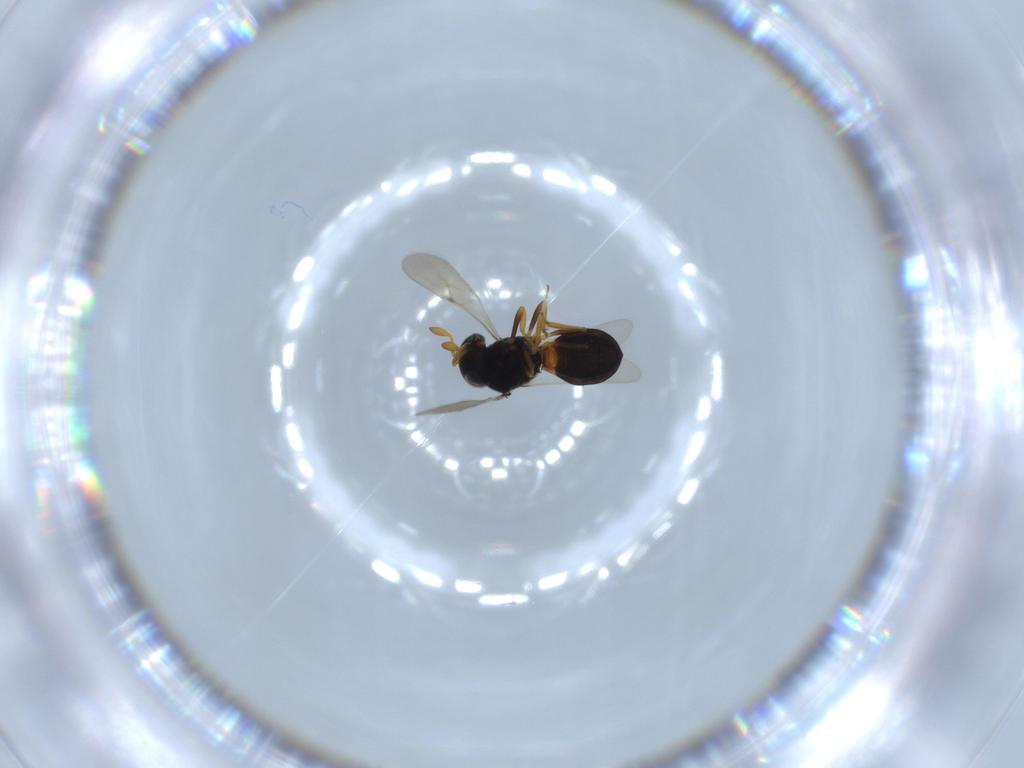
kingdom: Animalia
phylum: Arthropoda
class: Insecta
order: Hymenoptera
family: Scelionidae
